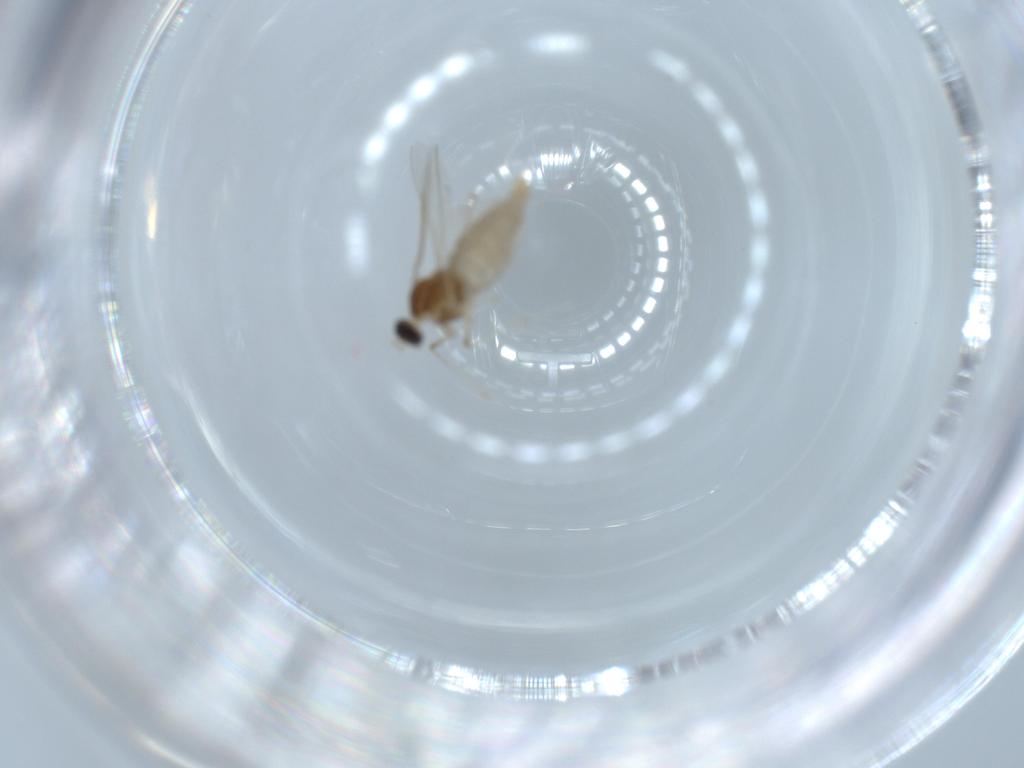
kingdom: Animalia
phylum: Arthropoda
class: Insecta
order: Diptera
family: Cecidomyiidae
